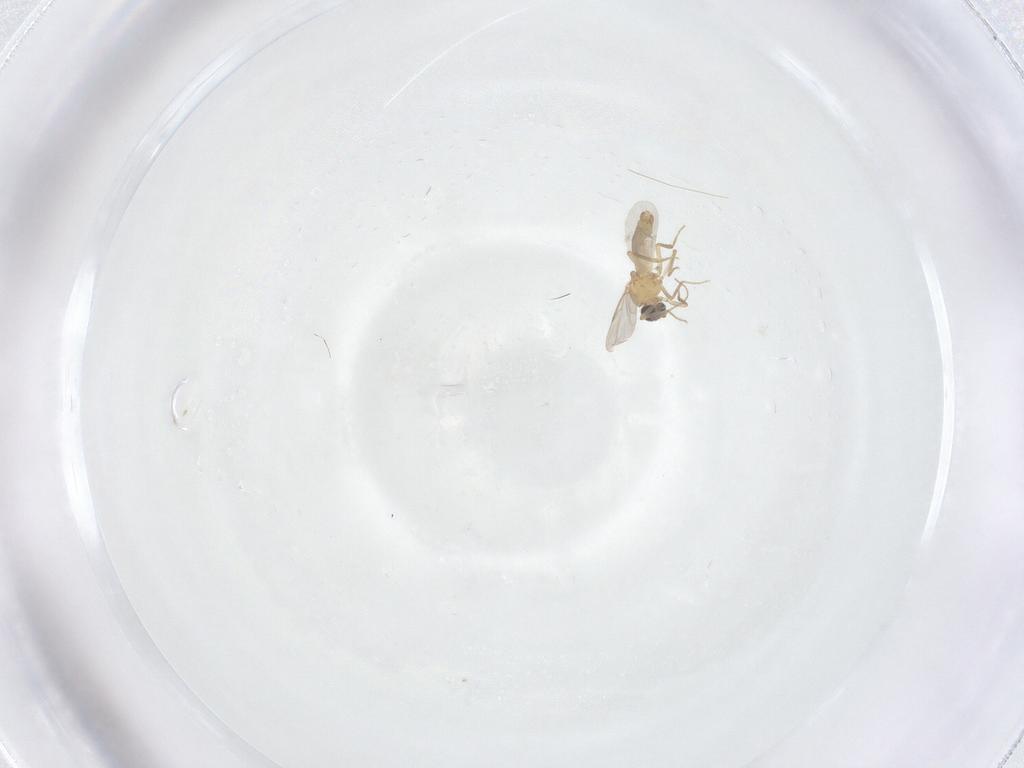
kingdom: Animalia
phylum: Arthropoda
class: Insecta
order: Diptera
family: Ceratopogonidae
